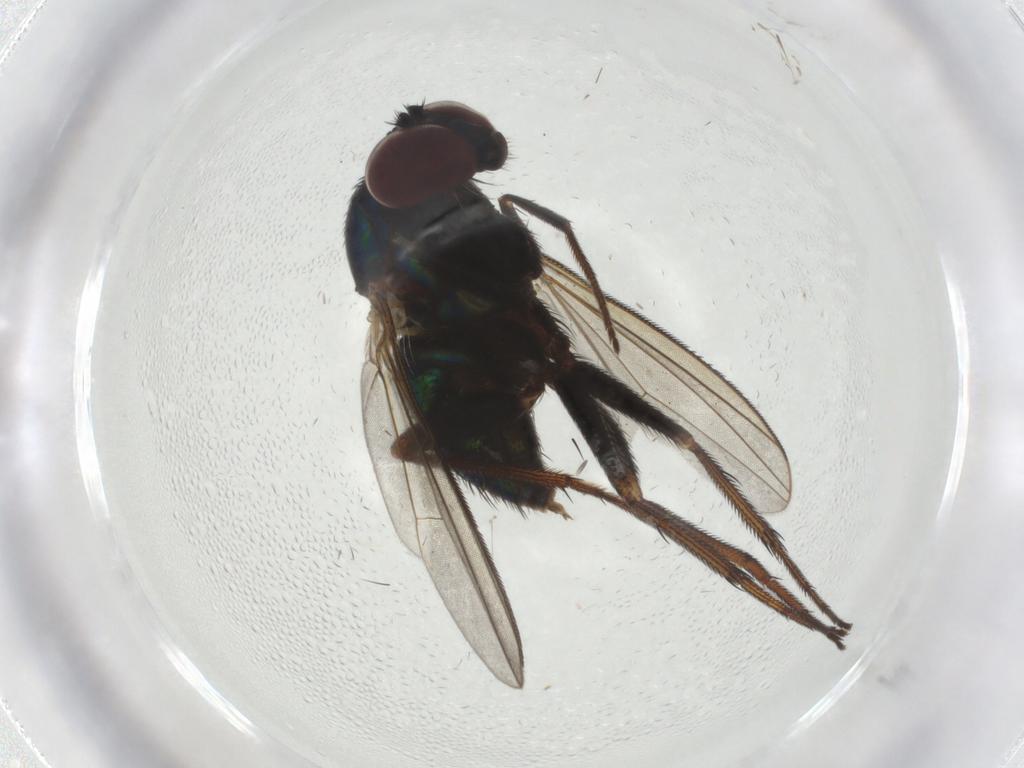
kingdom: Animalia
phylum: Arthropoda
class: Insecta
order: Diptera
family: Dolichopodidae
